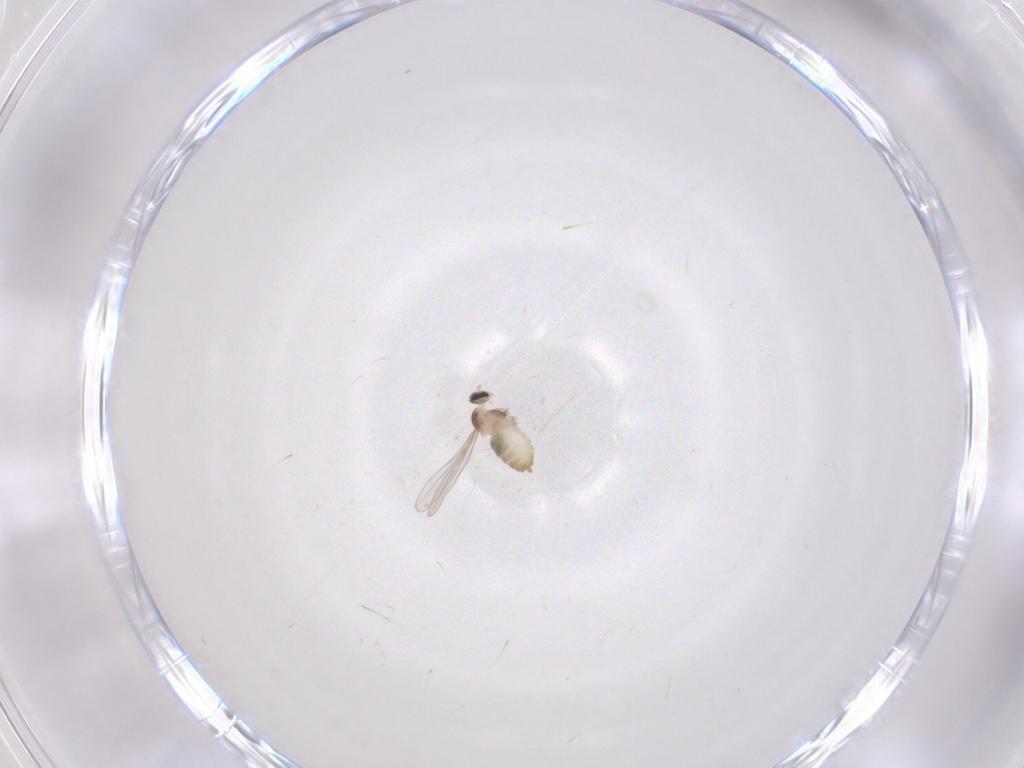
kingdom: Animalia
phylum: Arthropoda
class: Insecta
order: Diptera
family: Cecidomyiidae
